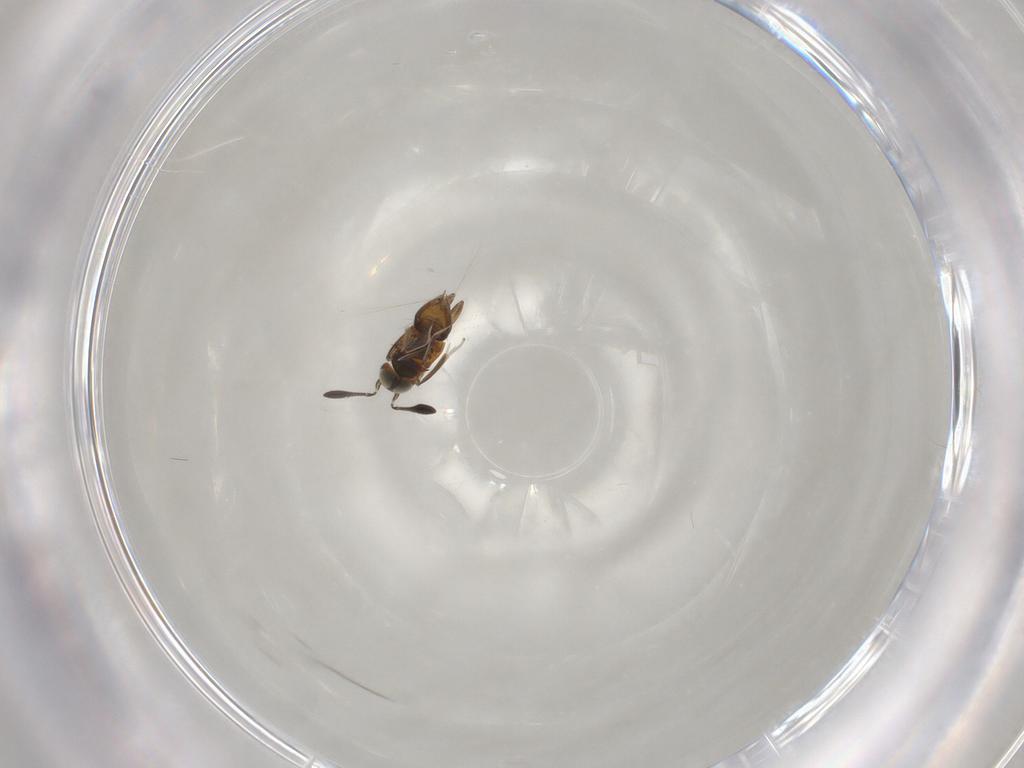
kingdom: Animalia
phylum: Arthropoda
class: Insecta
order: Hymenoptera
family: Encyrtidae
